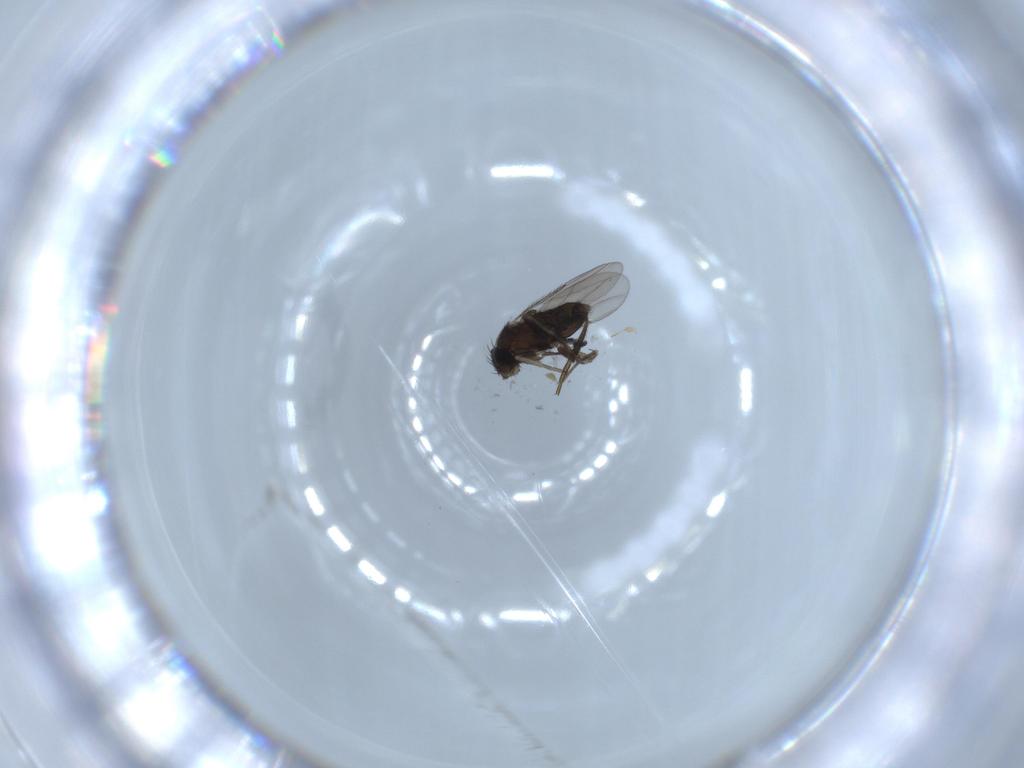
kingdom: Animalia
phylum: Arthropoda
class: Insecta
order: Diptera
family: Phoridae
